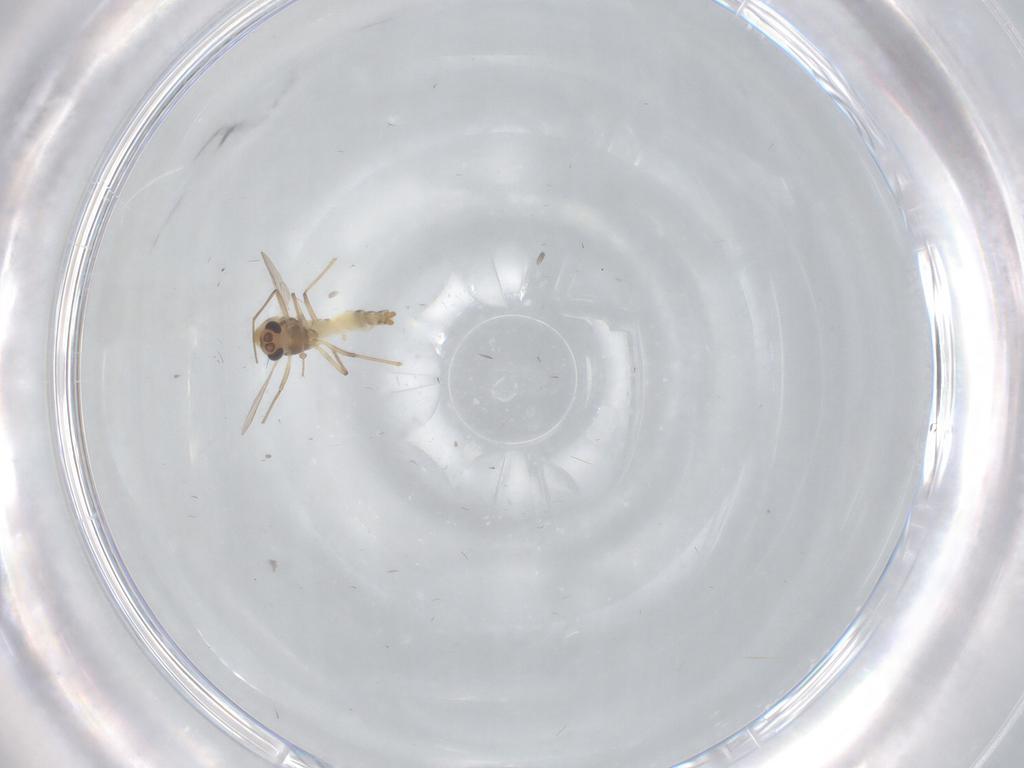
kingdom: Animalia
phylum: Arthropoda
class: Insecta
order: Diptera
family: Chironomidae
